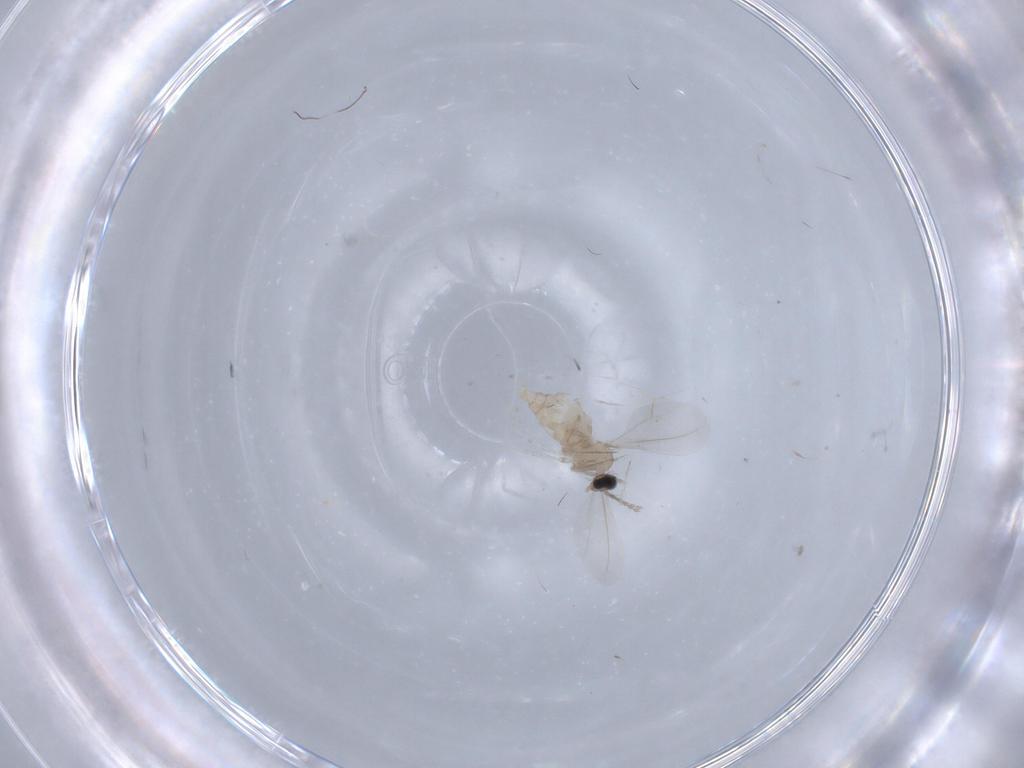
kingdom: Animalia
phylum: Arthropoda
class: Insecta
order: Diptera
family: Cecidomyiidae
